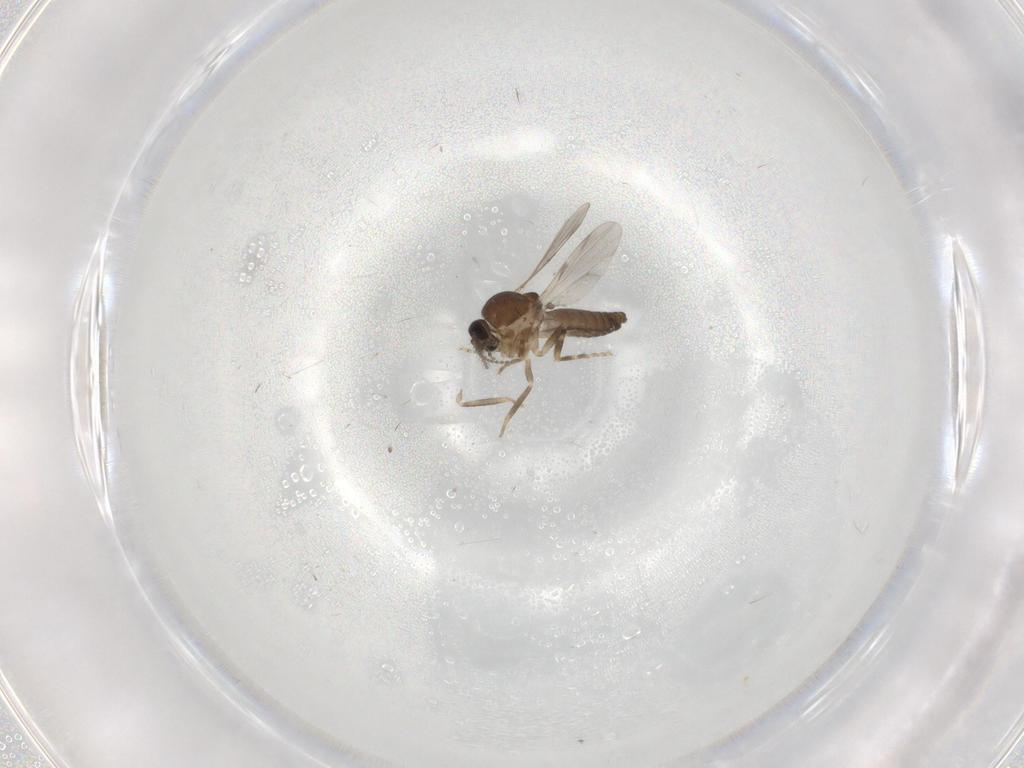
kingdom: Animalia
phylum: Arthropoda
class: Insecta
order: Diptera
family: Ceratopogonidae
